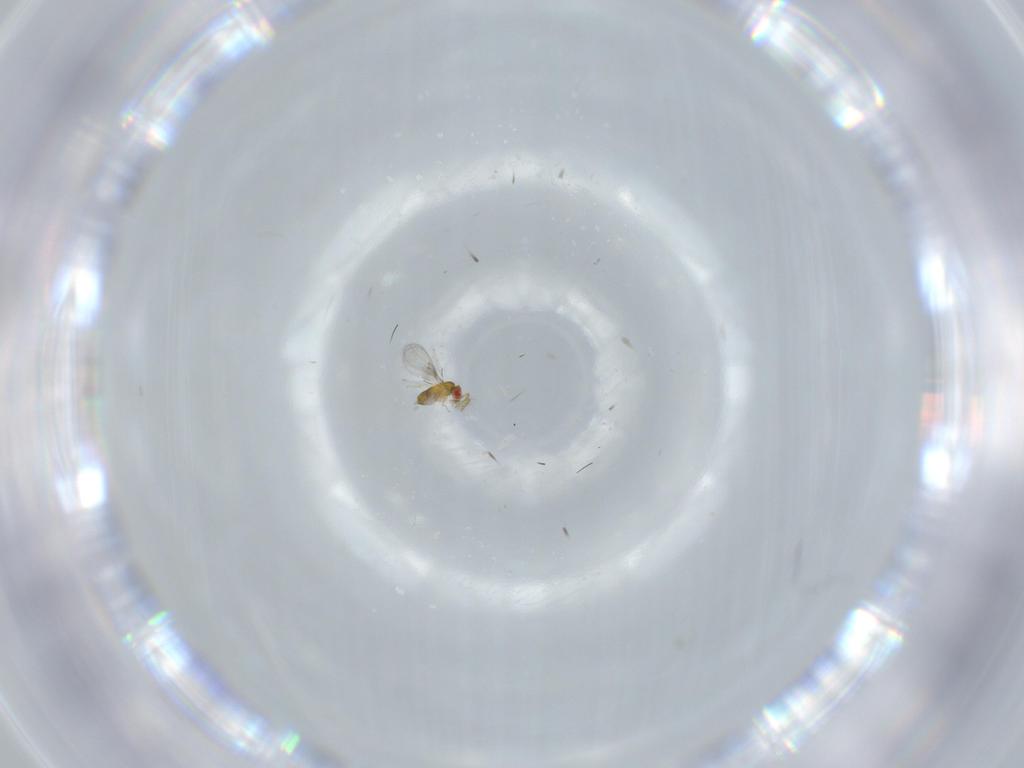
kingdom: Animalia
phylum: Arthropoda
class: Insecta
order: Hymenoptera
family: Trichogrammatidae
